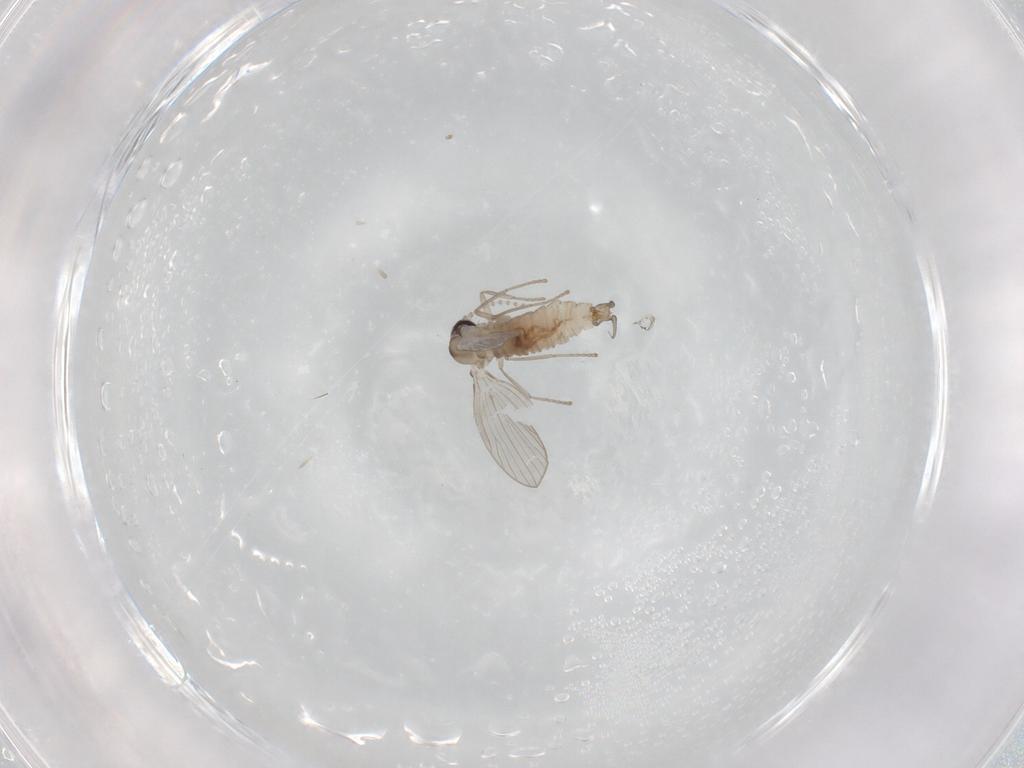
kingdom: Animalia
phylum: Arthropoda
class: Insecta
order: Diptera
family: Psychodidae
